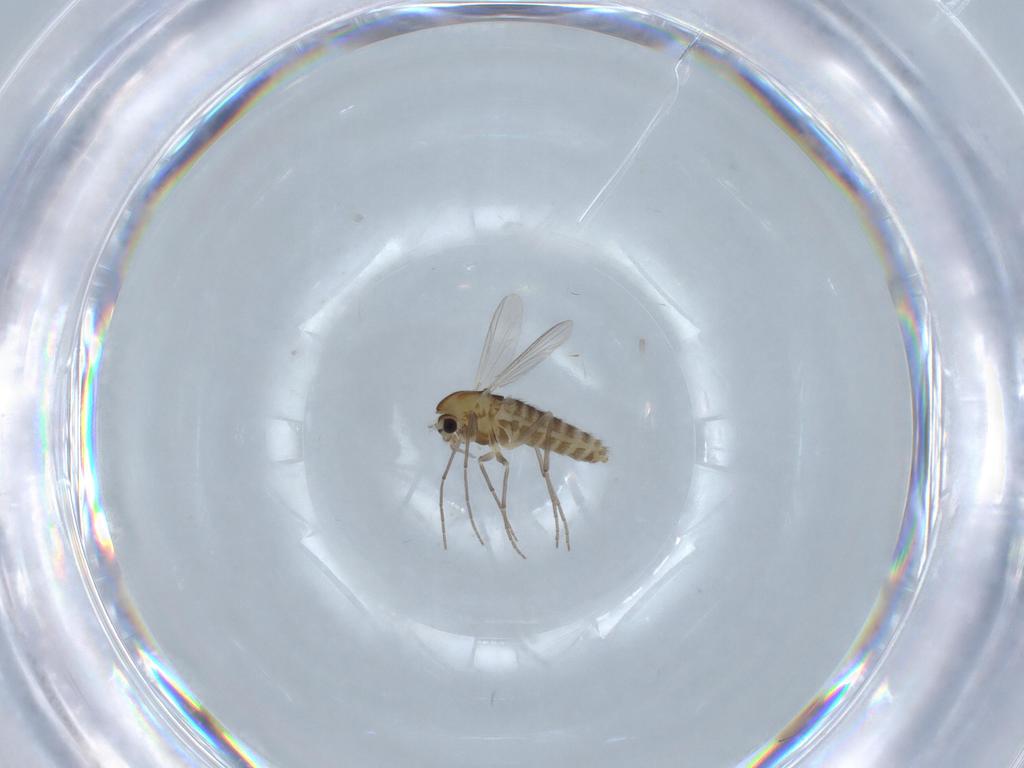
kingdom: Animalia
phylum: Arthropoda
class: Insecta
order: Diptera
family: Chironomidae
